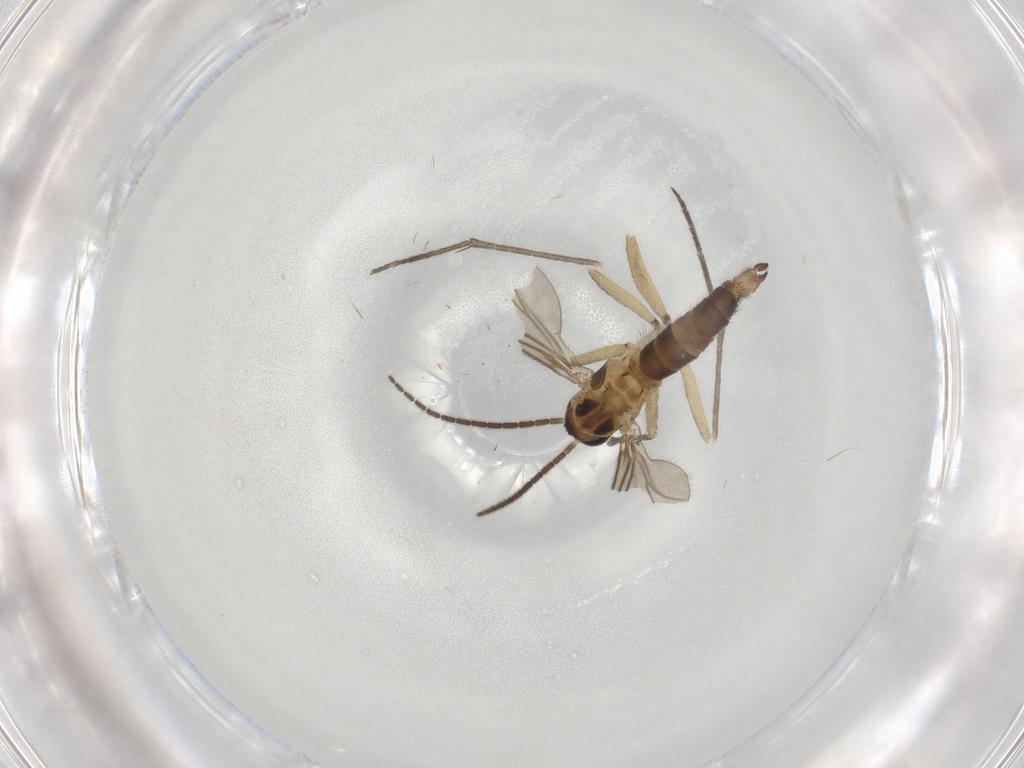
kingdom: Animalia
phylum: Arthropoda
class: Insecta
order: Diptera
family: Sciaridae
